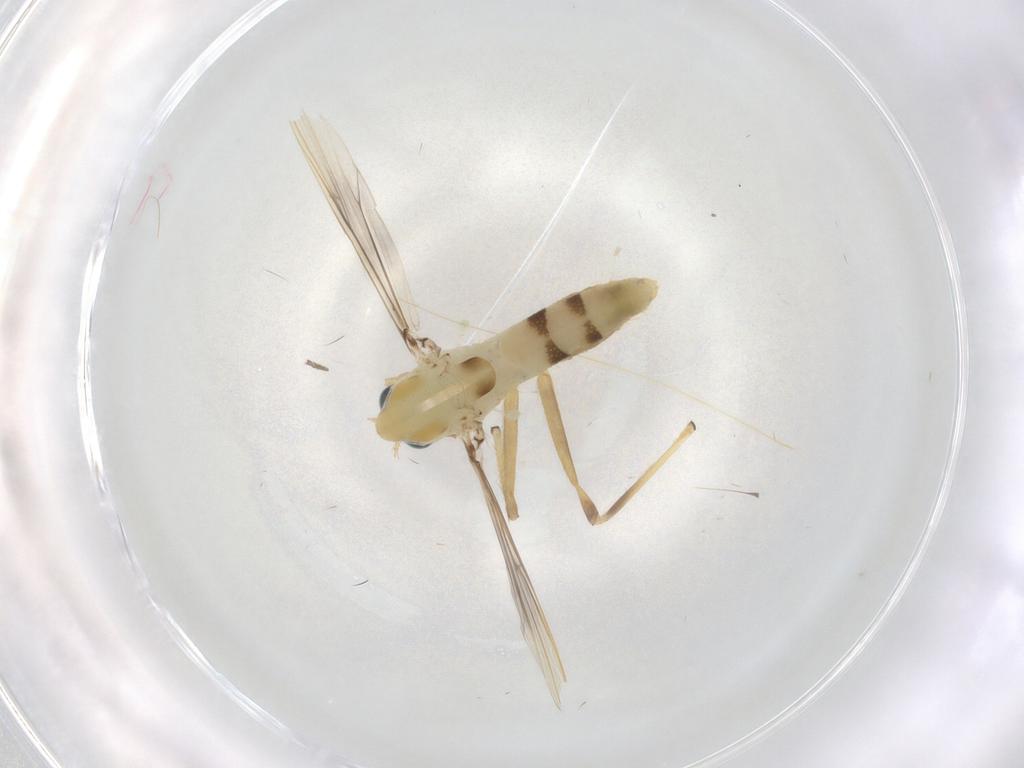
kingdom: Animalia
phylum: Arthropoda
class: Insecta
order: Diptera
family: Chironomidae
